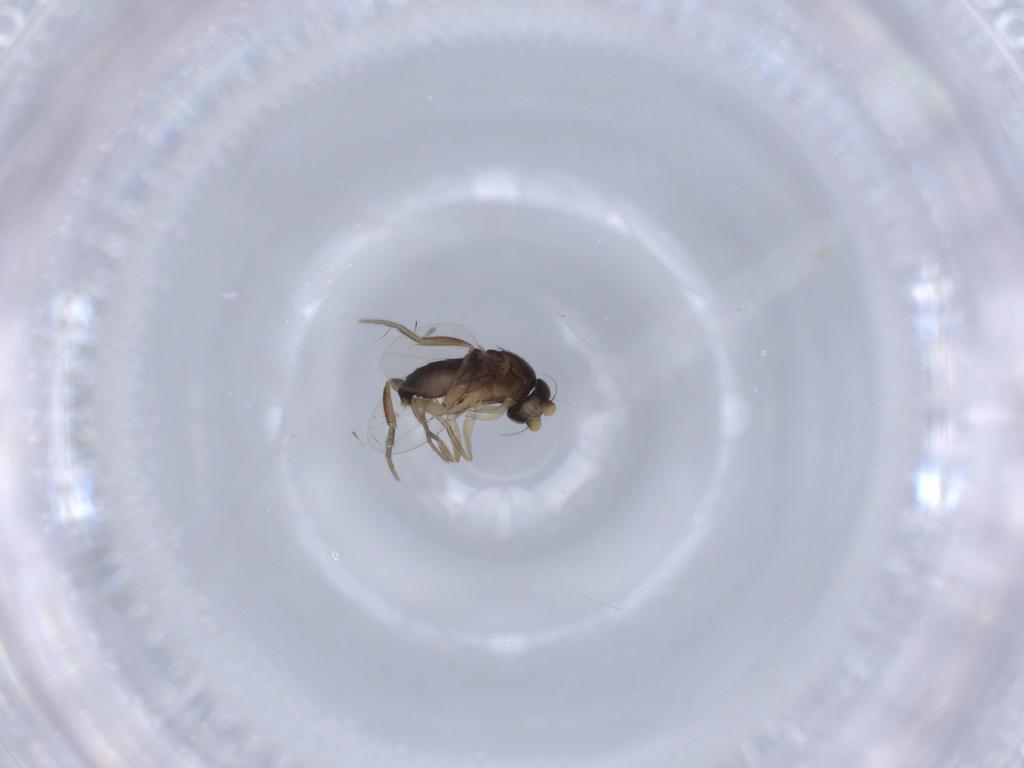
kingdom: Animalia
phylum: Arthropoda
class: Insecta
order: Diptera
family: Phoridae
